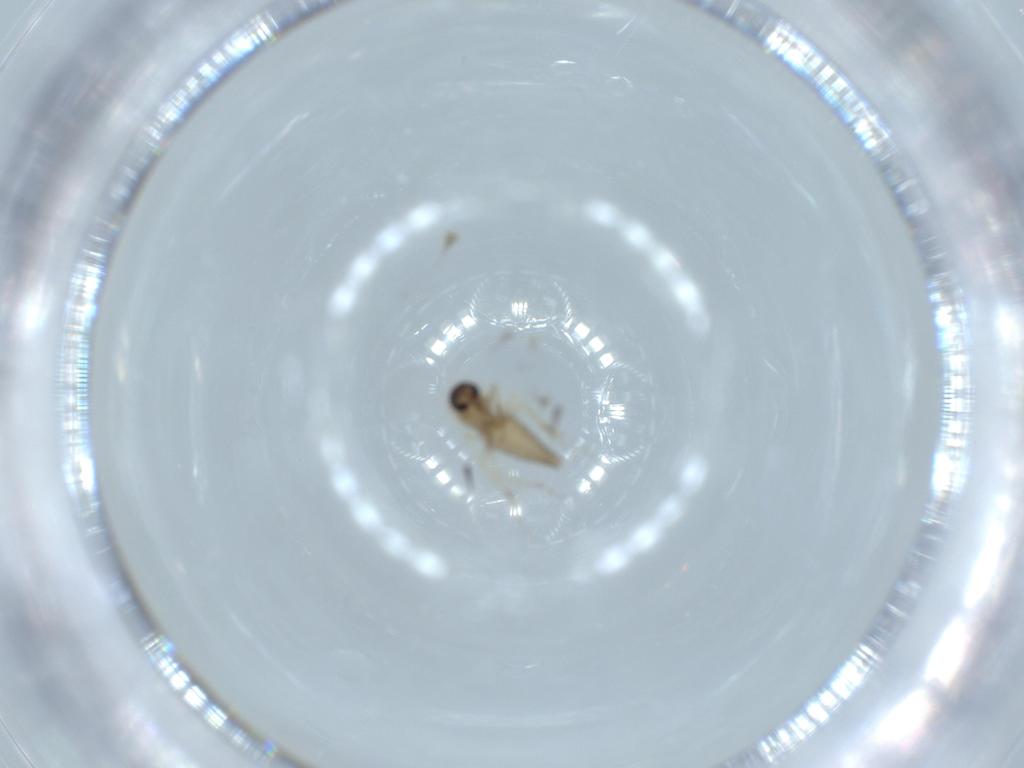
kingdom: Animalia
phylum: Arthropoda
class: Insecta
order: Diptera
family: Ceratopogonidae
